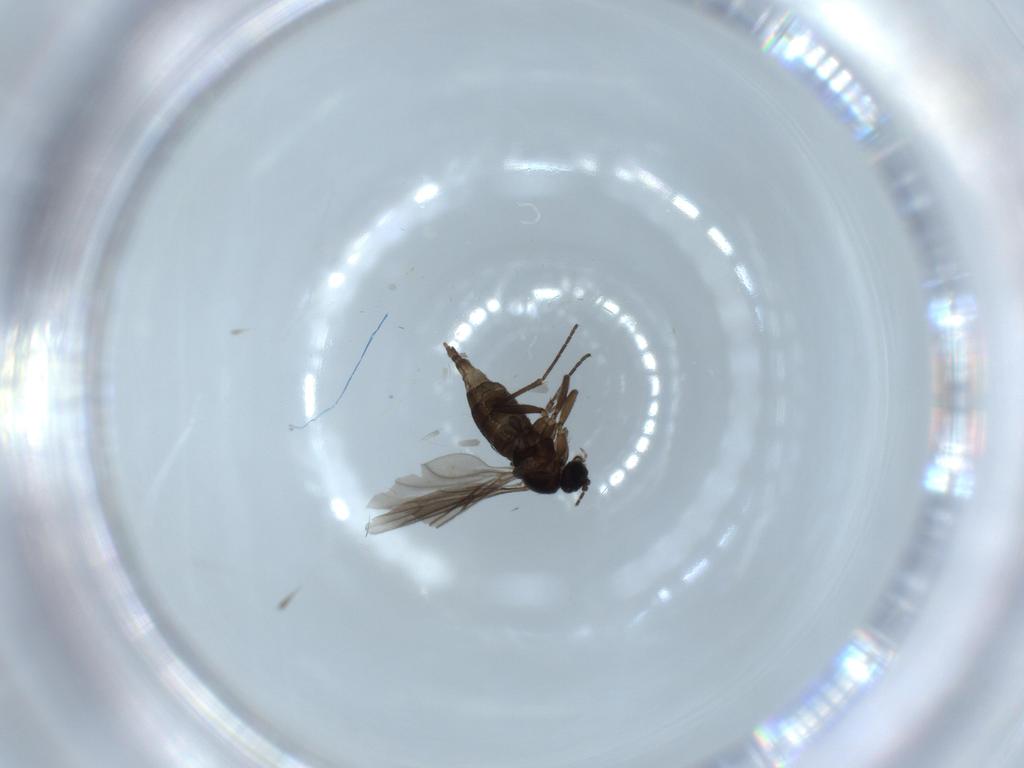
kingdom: Animalia
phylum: Arthropoda
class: Insecta
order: Diptera
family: Sciaridae
